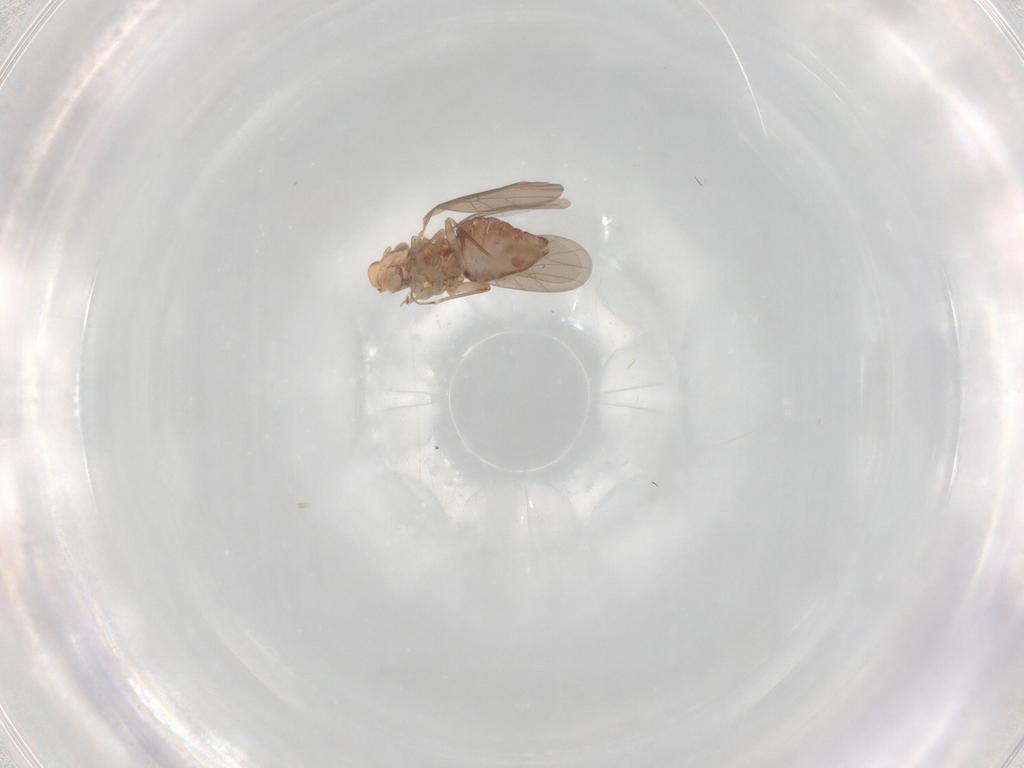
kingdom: Animalia
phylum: Arthropoda
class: Insecta
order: Psocodea
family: Lepidopsocidae
